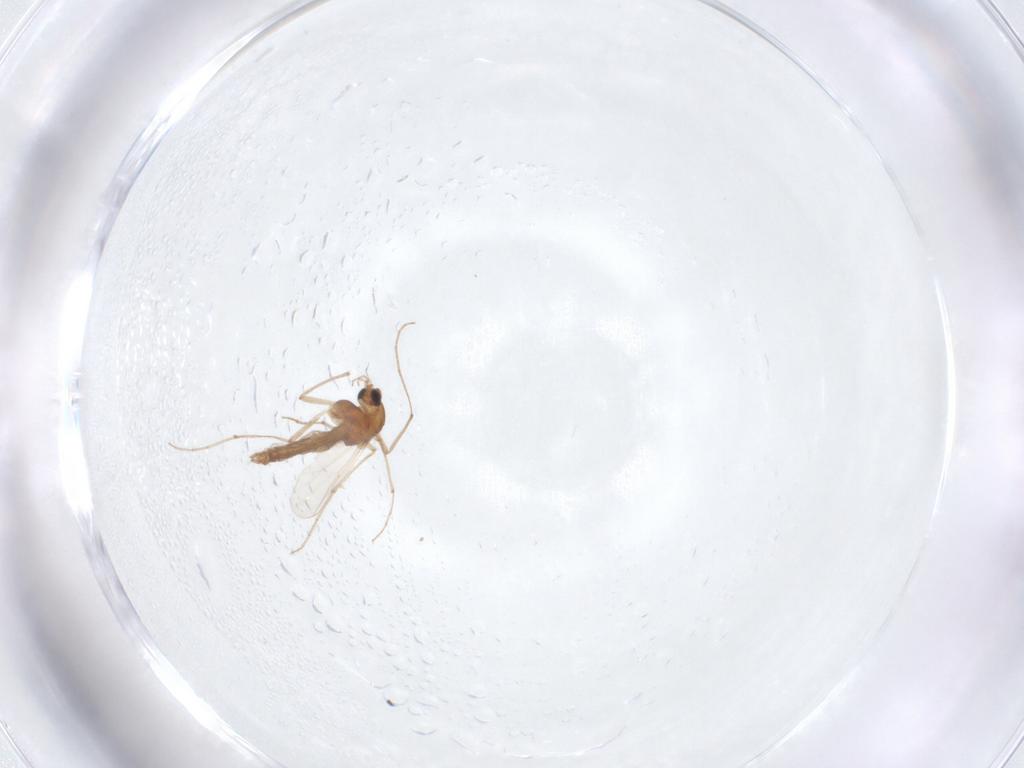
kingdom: Animalia
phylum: Arthropoda
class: Insecta
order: Diptera
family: Chironomidae
